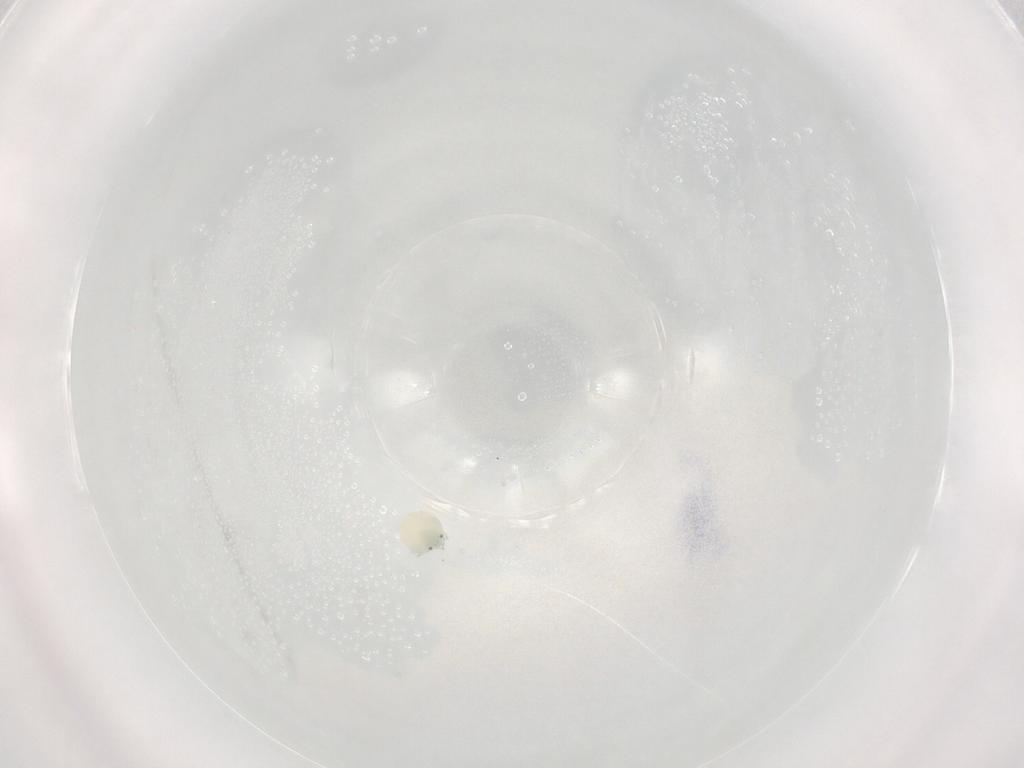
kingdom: Animalia
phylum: Arthropoda
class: Arachnida
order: Trombidiformes
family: Arrenuridae
